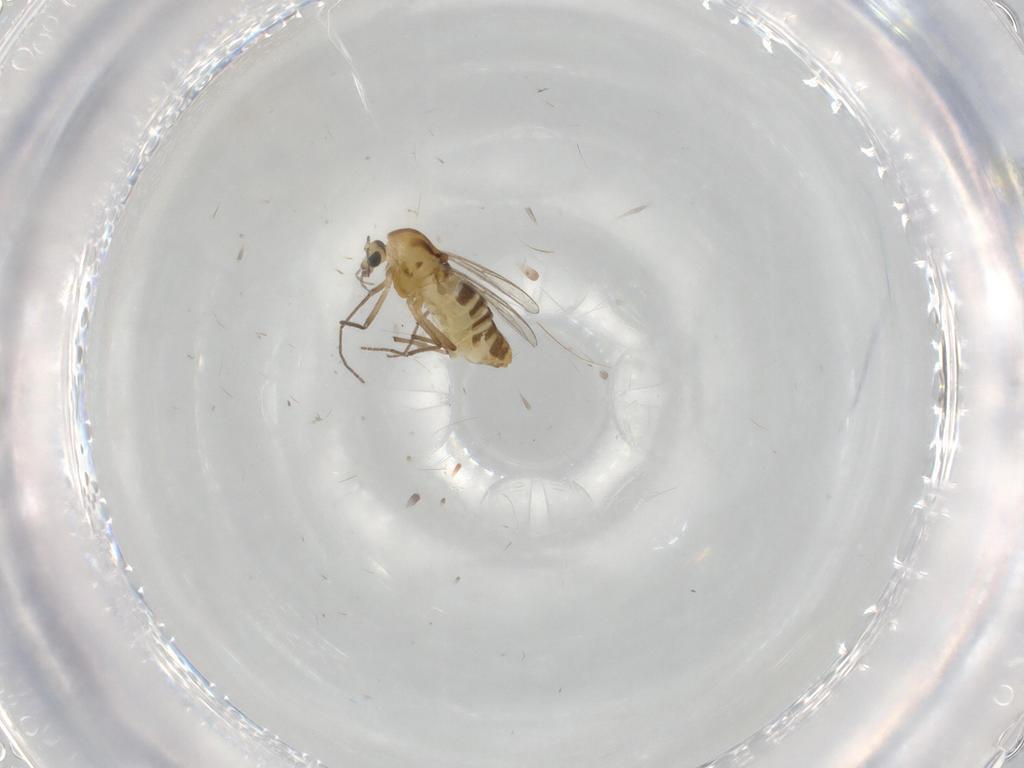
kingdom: Animalia
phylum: Arthropoda
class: Insecta
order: Diptera
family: Chironomidae
